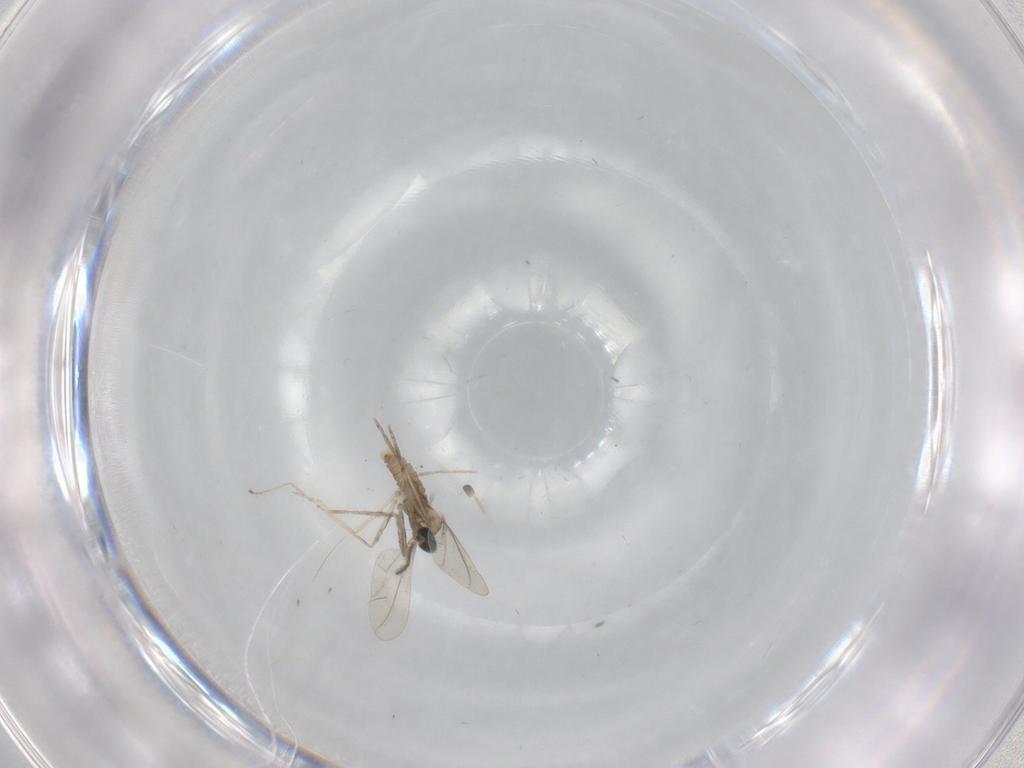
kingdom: Animalia
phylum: Arthropoda
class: Insecta
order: Diptera
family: Cecidomyiidae
